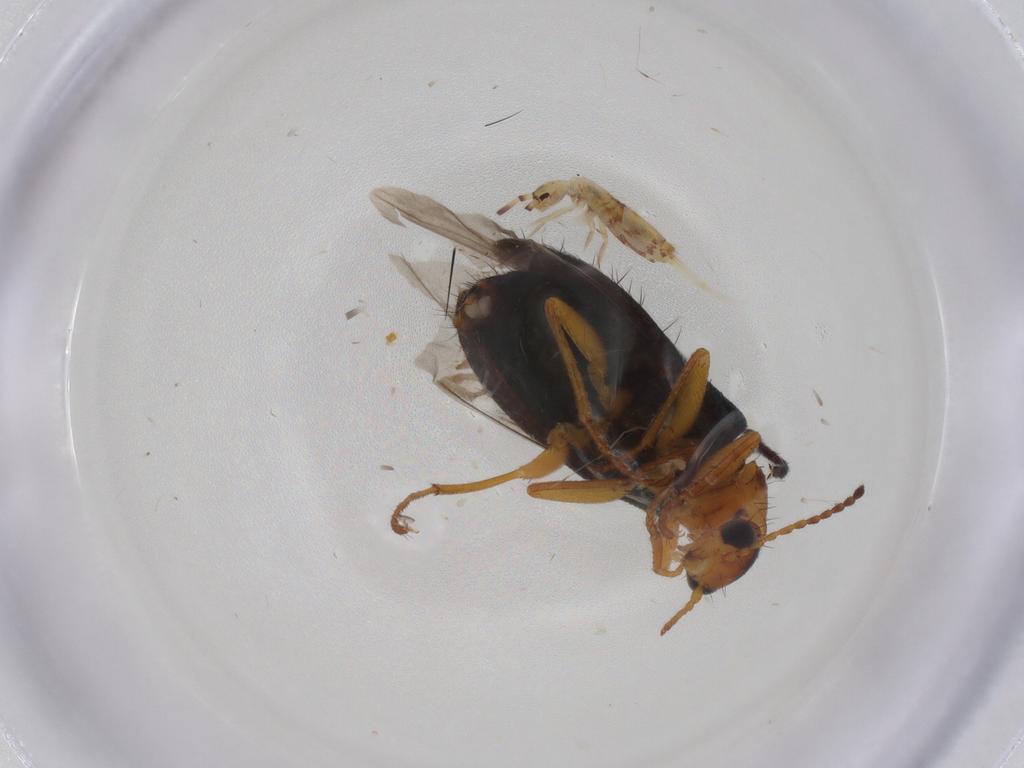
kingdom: Animalia
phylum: Arthropoda
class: Insecta
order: Coleoptera
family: Melyridae
